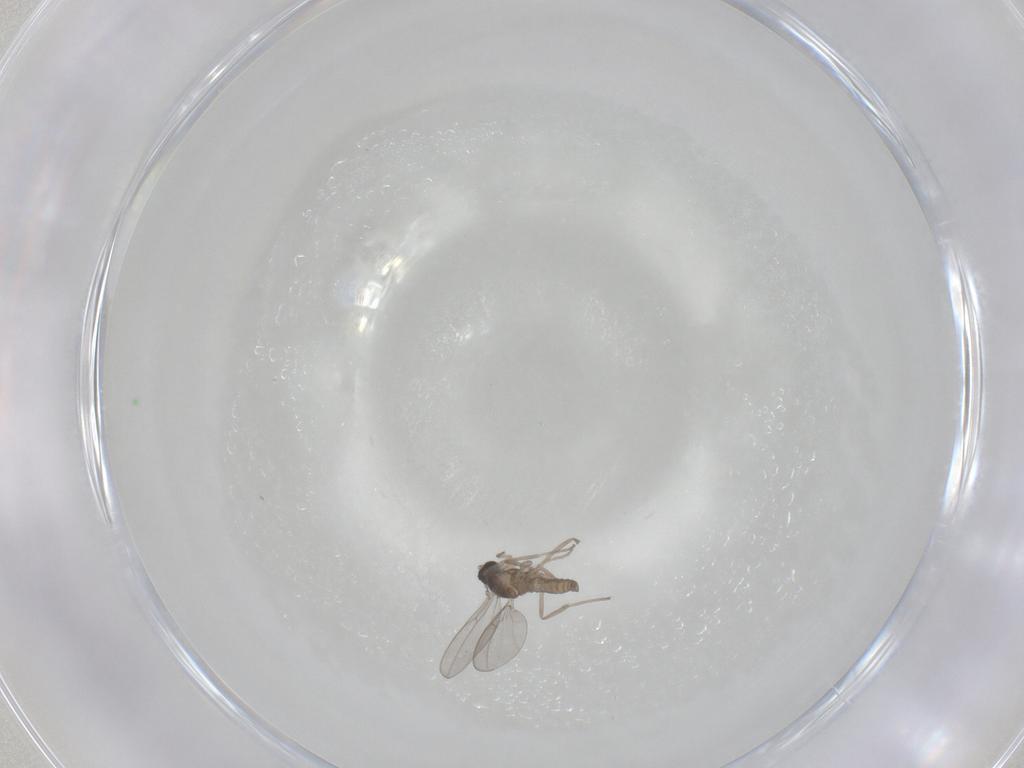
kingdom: Animalia
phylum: Arthropoda
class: Insecta
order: Diptera
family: Cecidomyiidae
